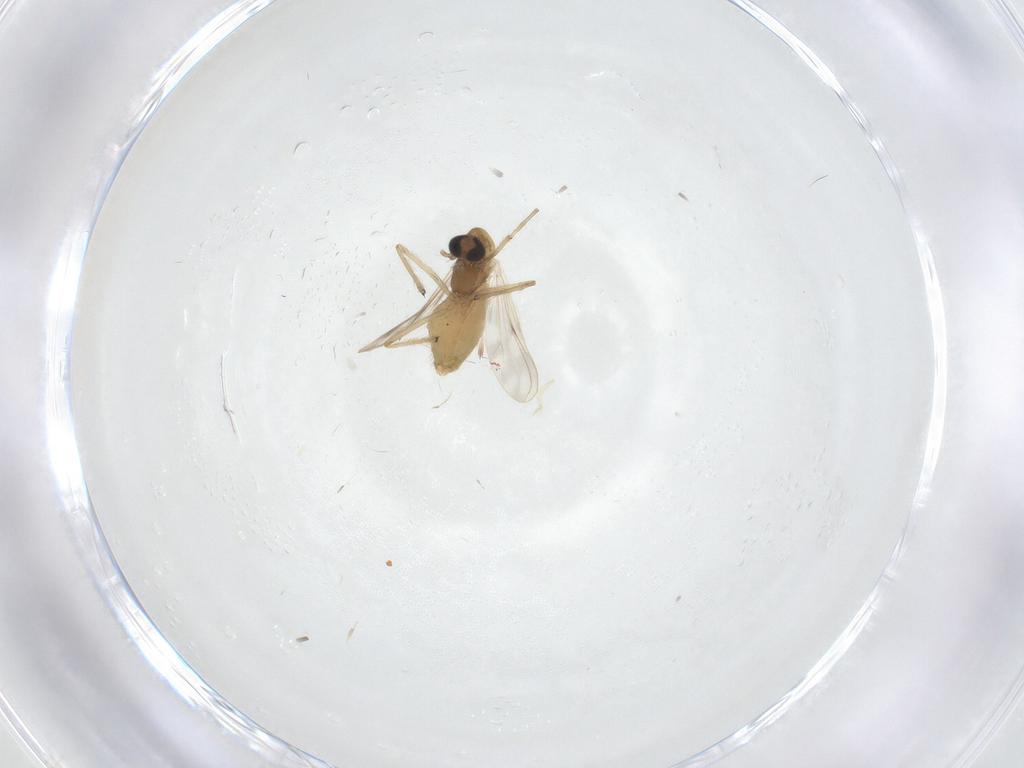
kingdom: Animalia
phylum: Arthropoda
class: Insecta
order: Diptera
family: Chironomidae
